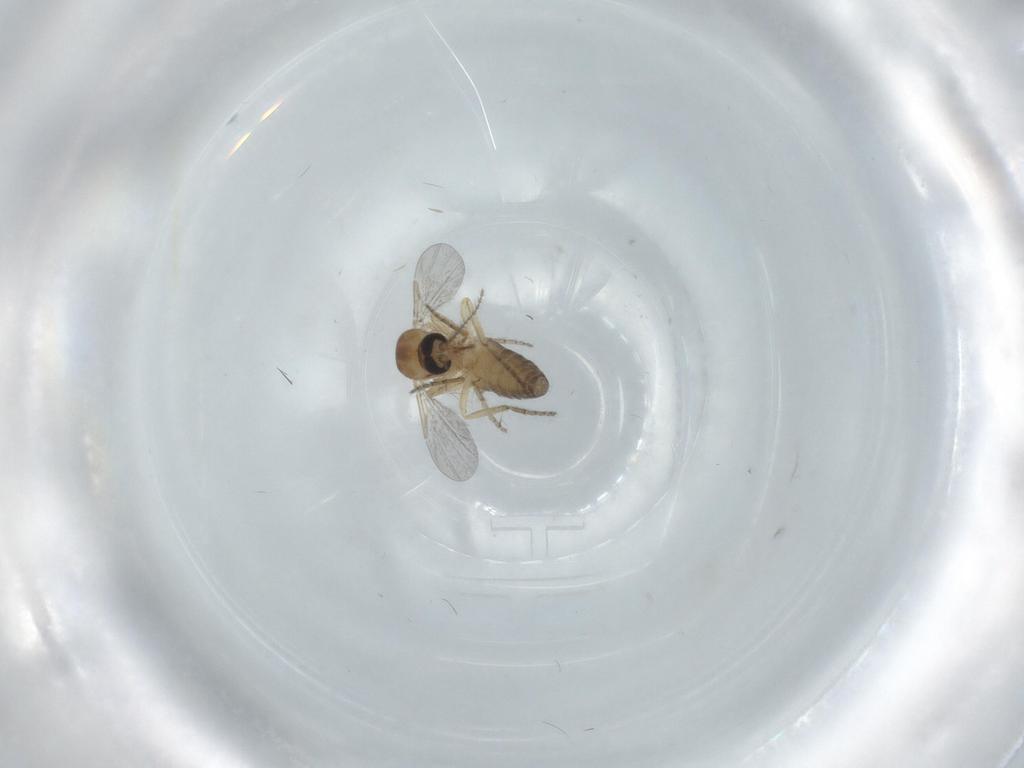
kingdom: Animalia
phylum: Arthropoda
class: Insecta
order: Diptera
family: Ceratopogonidae
